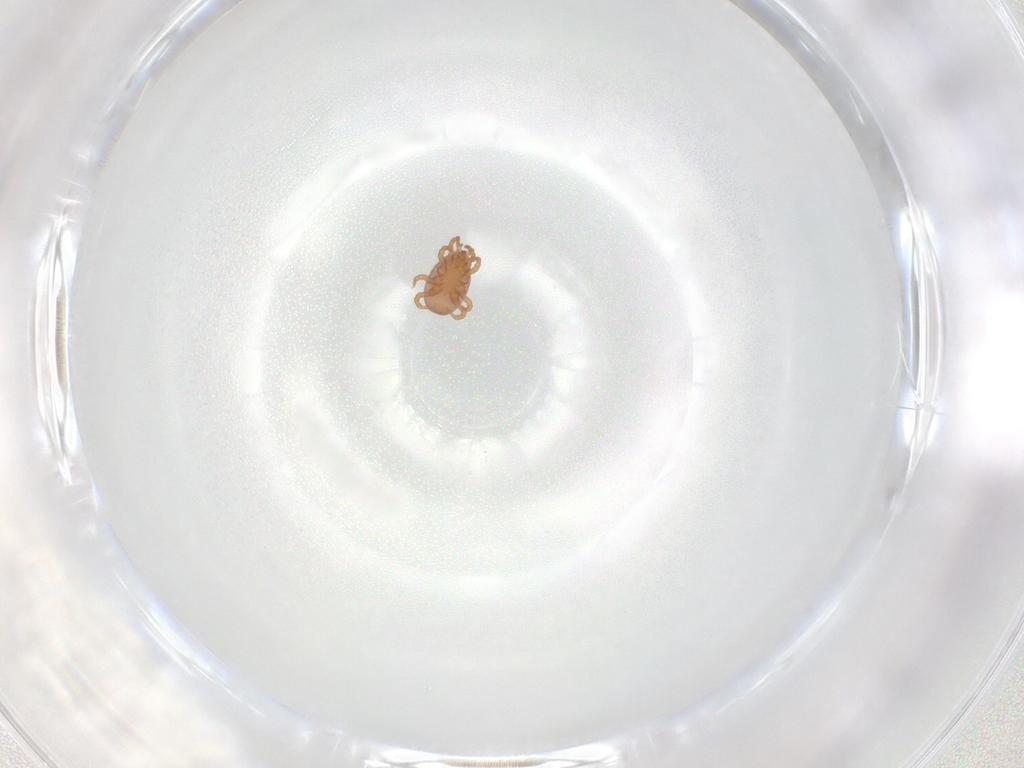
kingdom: Animalia
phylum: Arthropoda
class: Arachnida
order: Mesostigmata
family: Eviphididae
